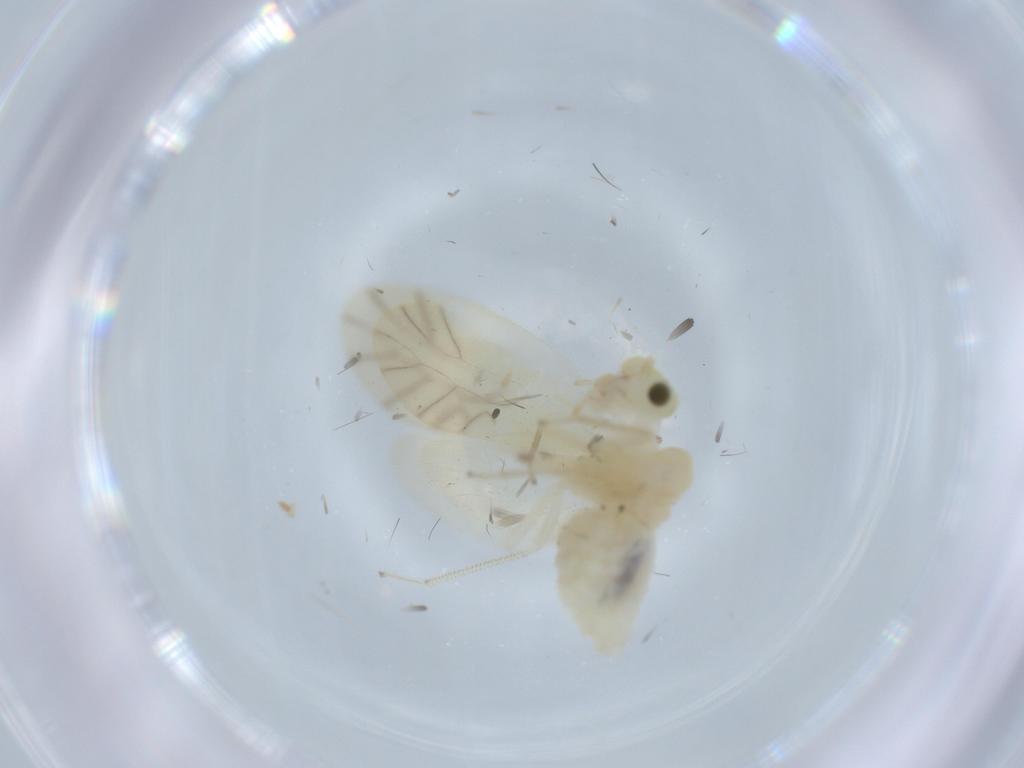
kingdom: Animalia
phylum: Arthropoda
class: Insecta
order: Psocodea
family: Caeciliusidae
